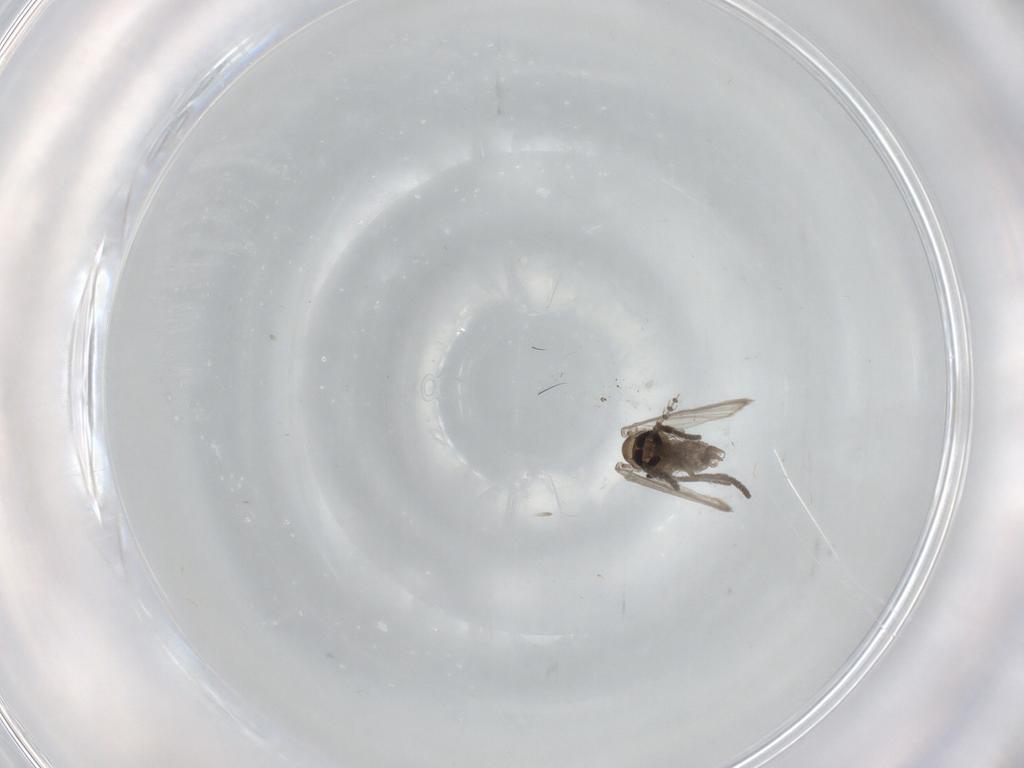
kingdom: Animalia
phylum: Arthropoda
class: Insecta
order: Diptera
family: Psychodidae
